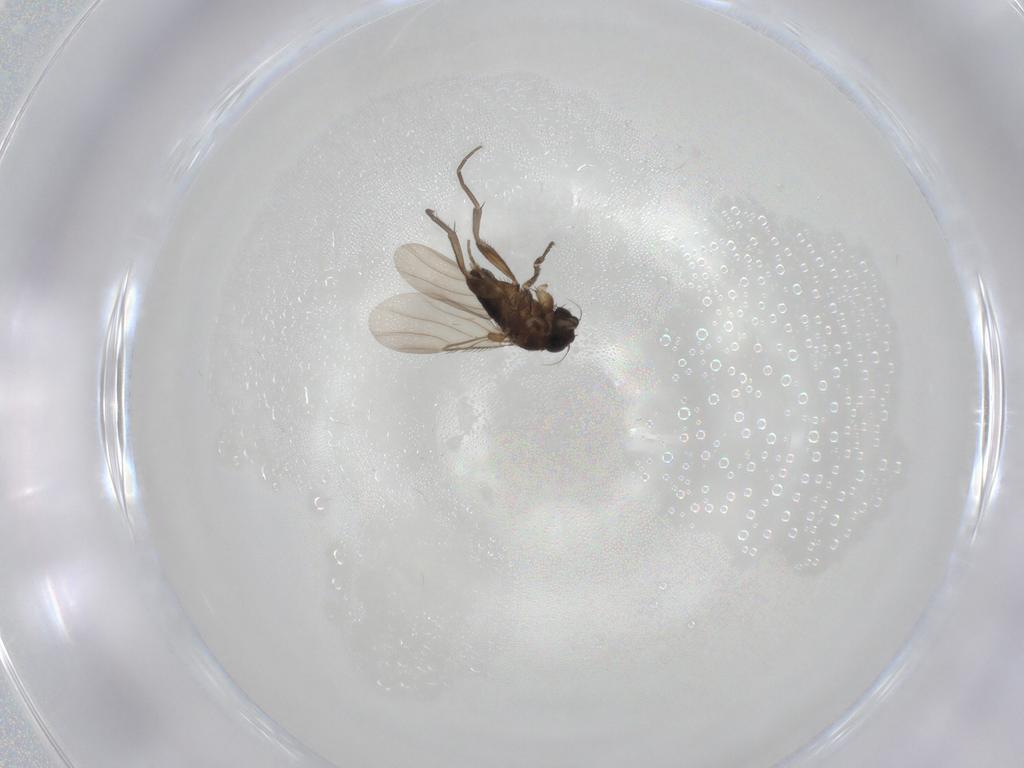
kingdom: Animalia
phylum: Arthropoda
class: Insecta
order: Diptera
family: Phoridae
